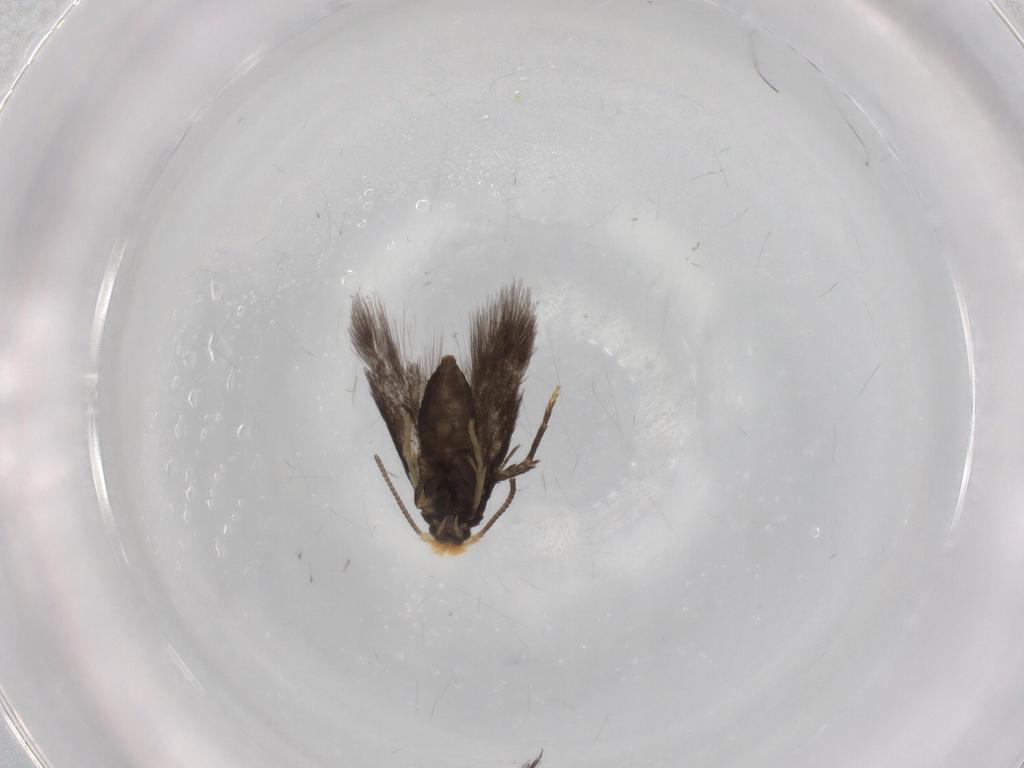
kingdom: Animalia
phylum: Arthropoda
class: Insecta
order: Lepidoptera
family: Nepticulidae
